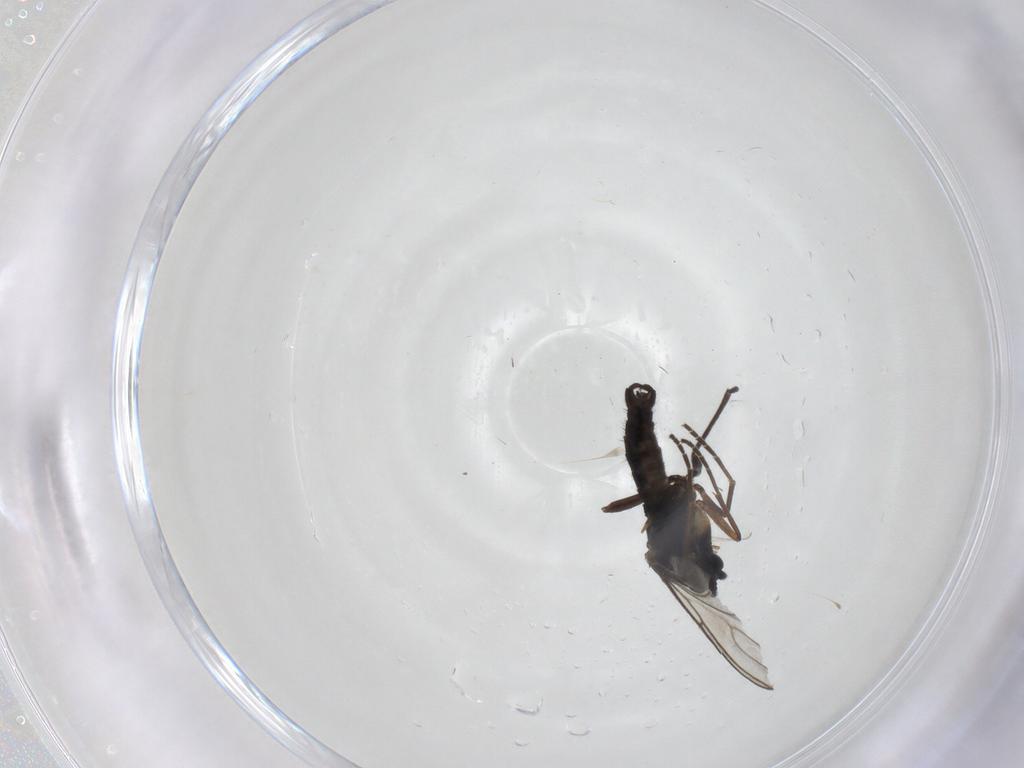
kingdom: Animalia
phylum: Arthropoda
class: Insecta
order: Diptera
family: Sciaridae
